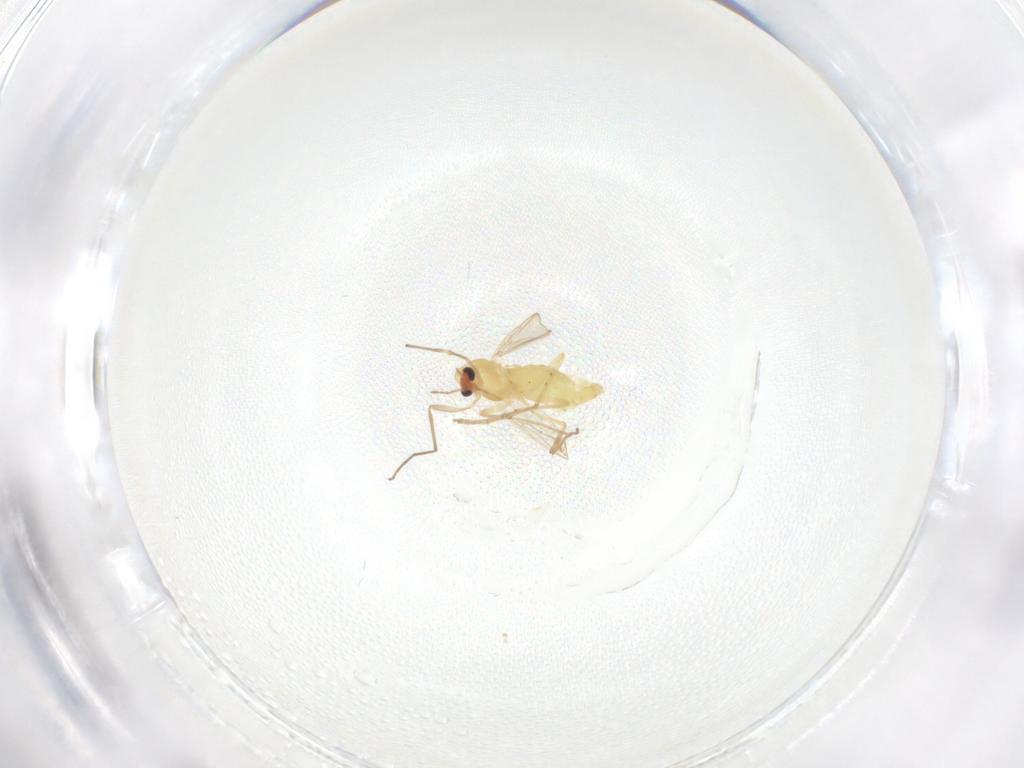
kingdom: Animalia
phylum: Arthropoda
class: Insecta
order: Diptera
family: Chironomidae
